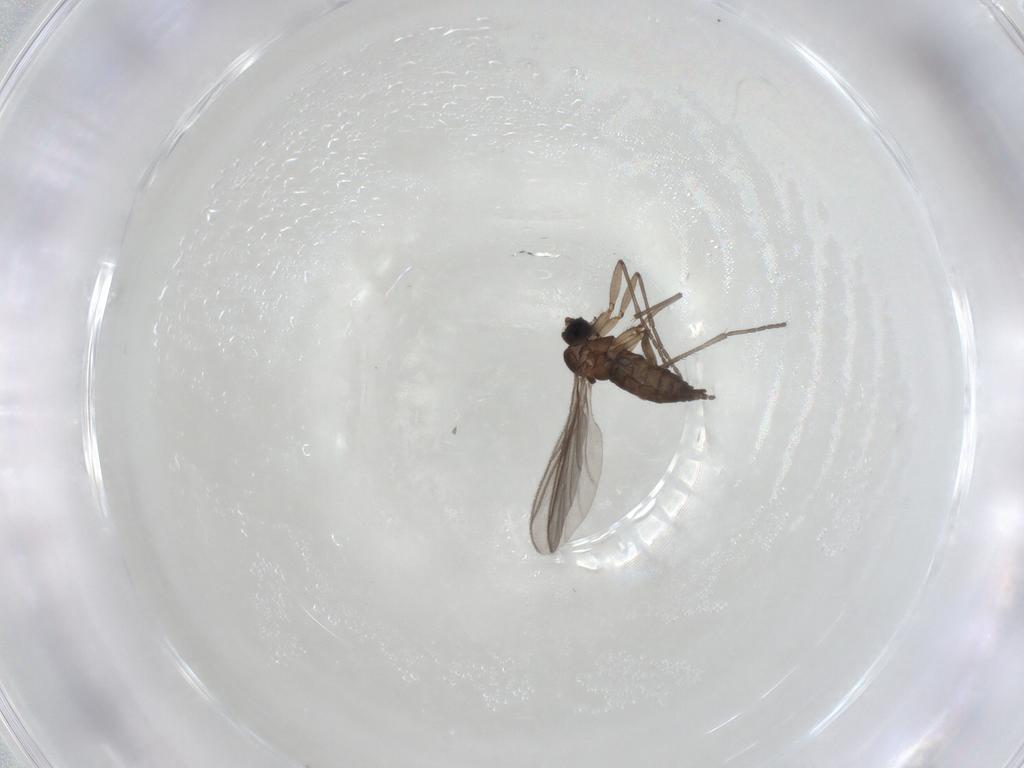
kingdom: Animalia
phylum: Arthropoda
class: Insecta
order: Diptera
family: Sciaridae
